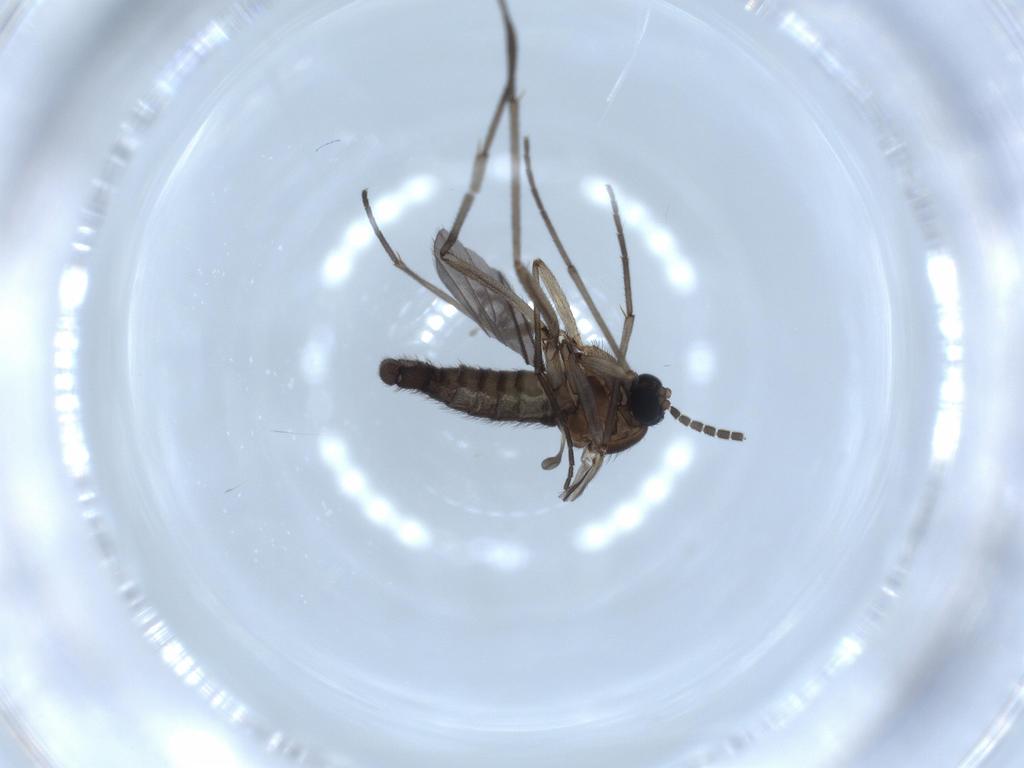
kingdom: Animalia
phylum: Arthropoda
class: Insecta
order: Diptera
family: Sciaridae
